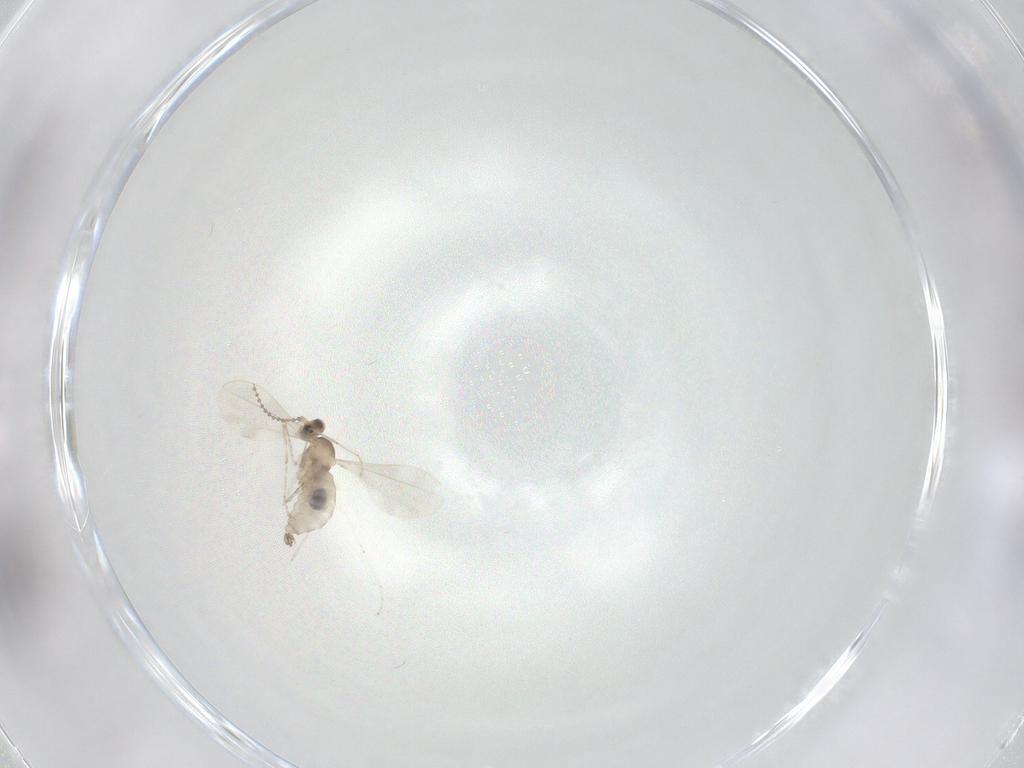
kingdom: Animalia
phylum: Arthropoda
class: Insecta
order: Diptera
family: Cecidomyiidae
